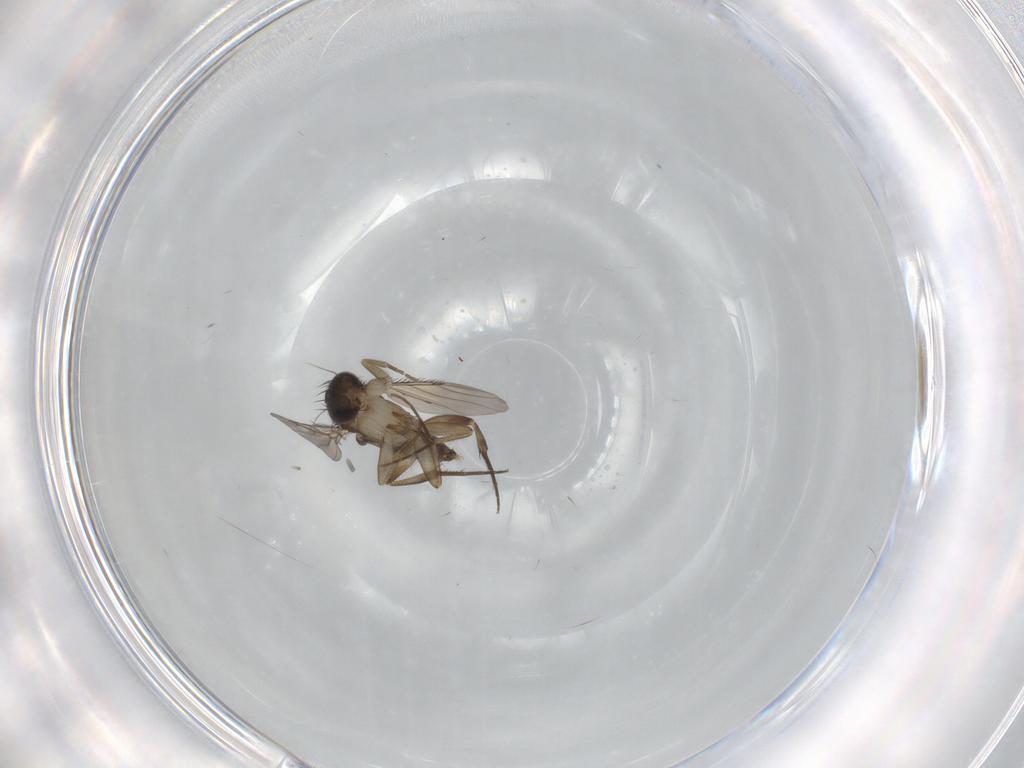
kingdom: Animalia
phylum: Arthropoda
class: Insecta
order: Diptera
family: Phoridae
